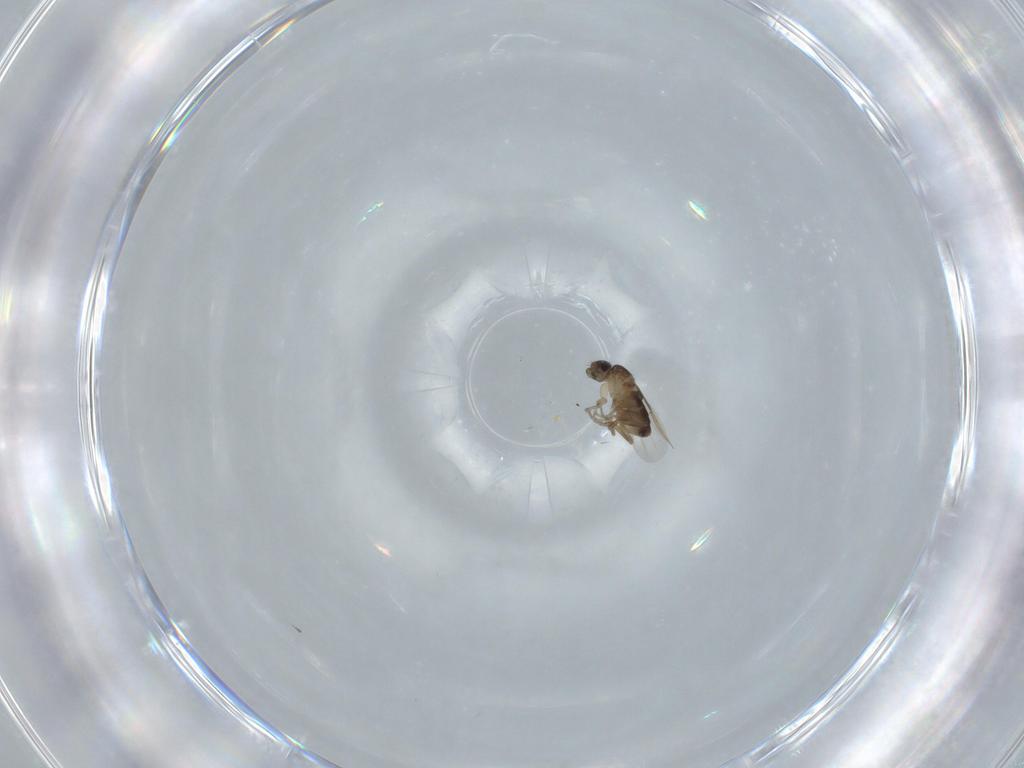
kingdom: Animalia
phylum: Arthropoda
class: Insecta
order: Diptera
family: Phoridae
